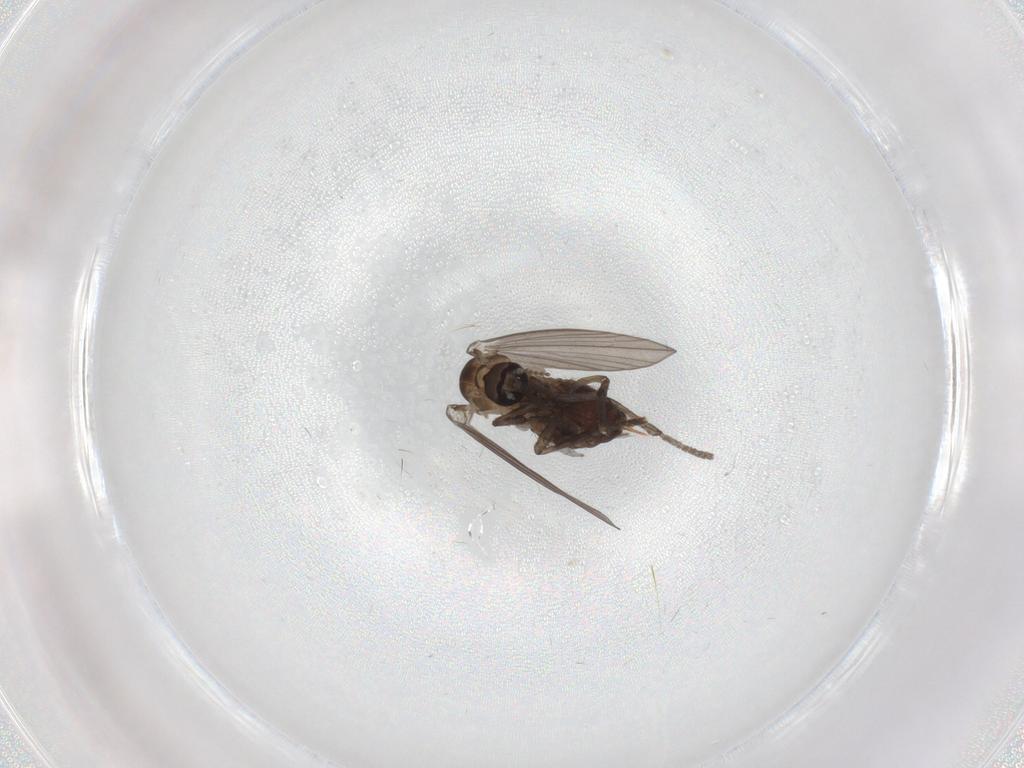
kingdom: Animalia
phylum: Arthropoda
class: Insecta
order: Diptera
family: Psychodidae
